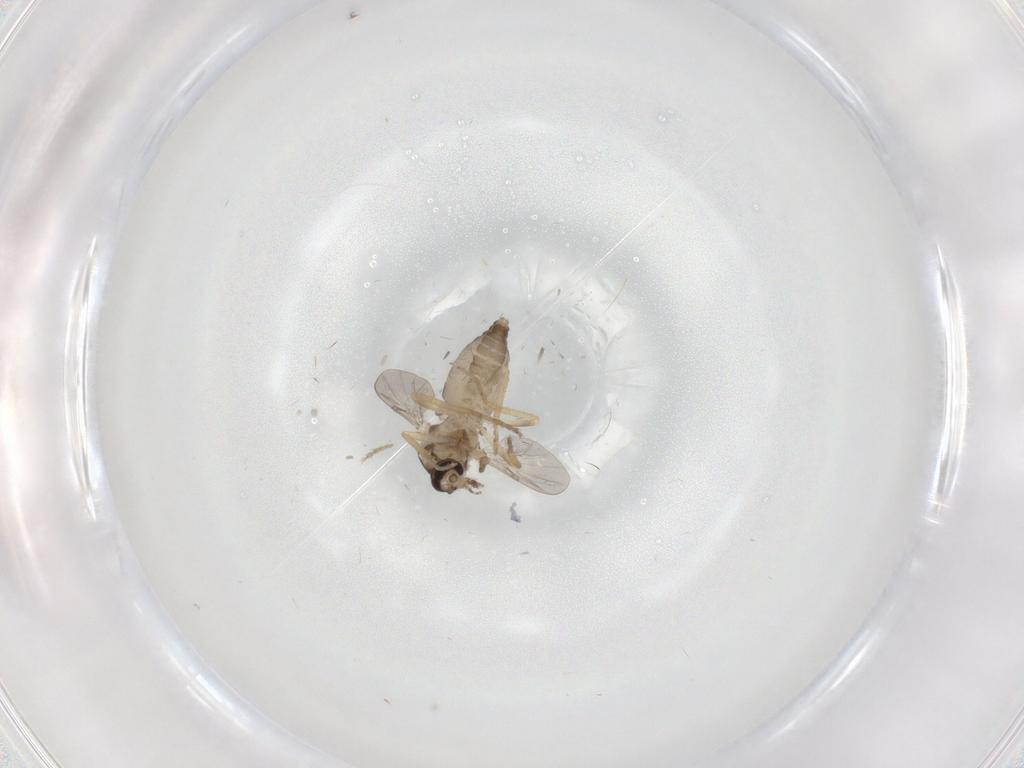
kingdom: Animalia
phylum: Arthropoda
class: Insecta
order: Diptera
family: Ceratopogonidae
